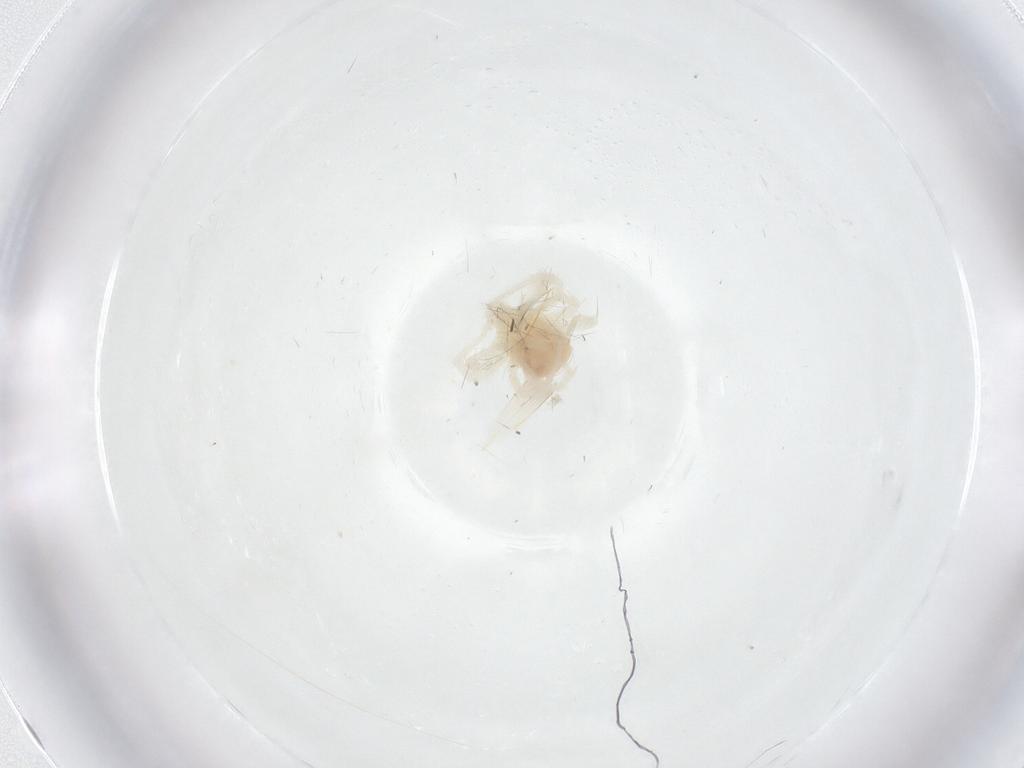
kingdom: Animalia
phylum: Arthropoda
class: Arachnida
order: Trombidiformes
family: Anystidae
